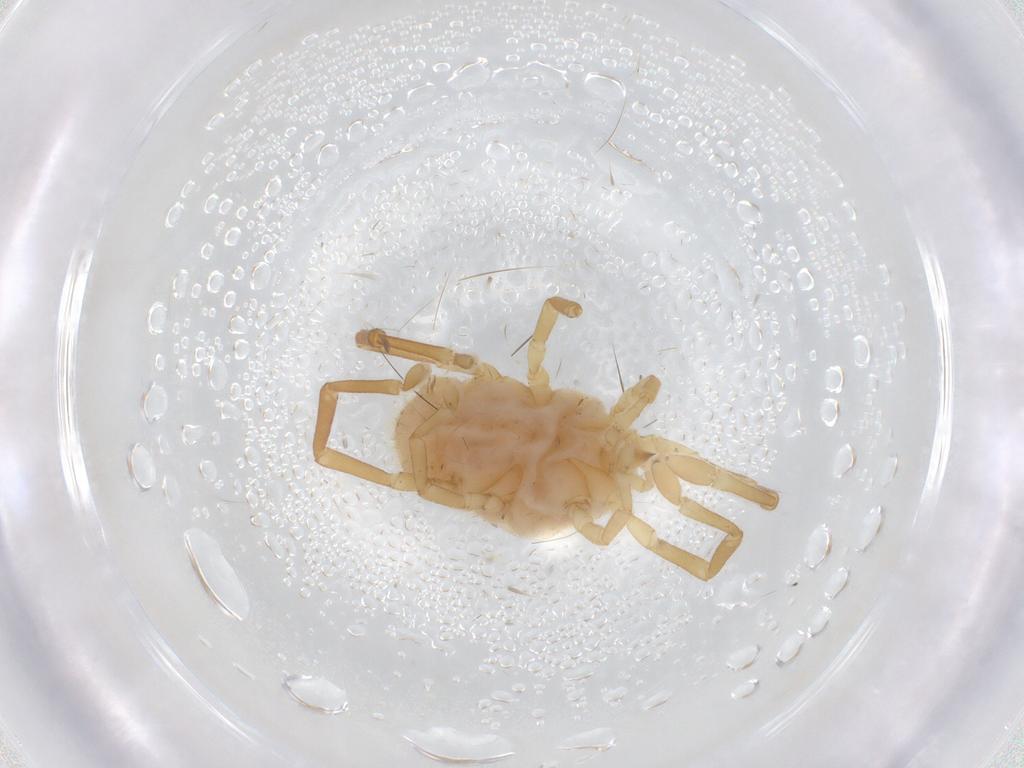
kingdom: Animalia
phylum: Arthropoda
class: Arachnida
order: Trombidiformes
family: Erythraeidae
